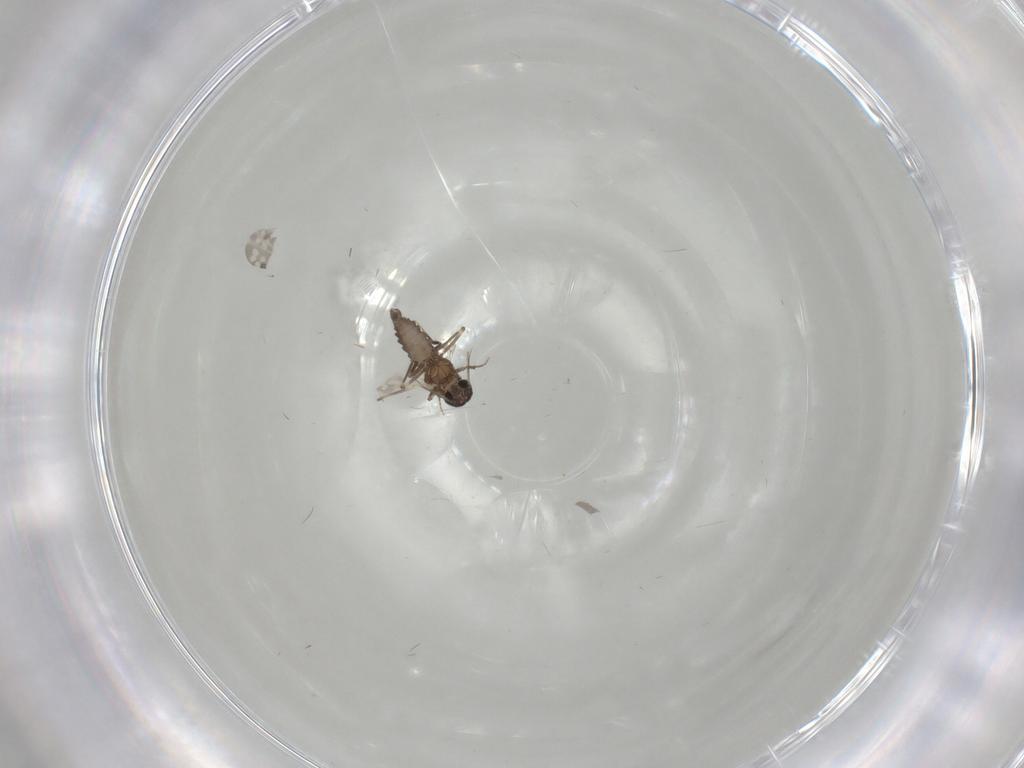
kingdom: Animalia
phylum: Arthropoda
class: Insecta
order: Diptera
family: Ceratopogonidae
